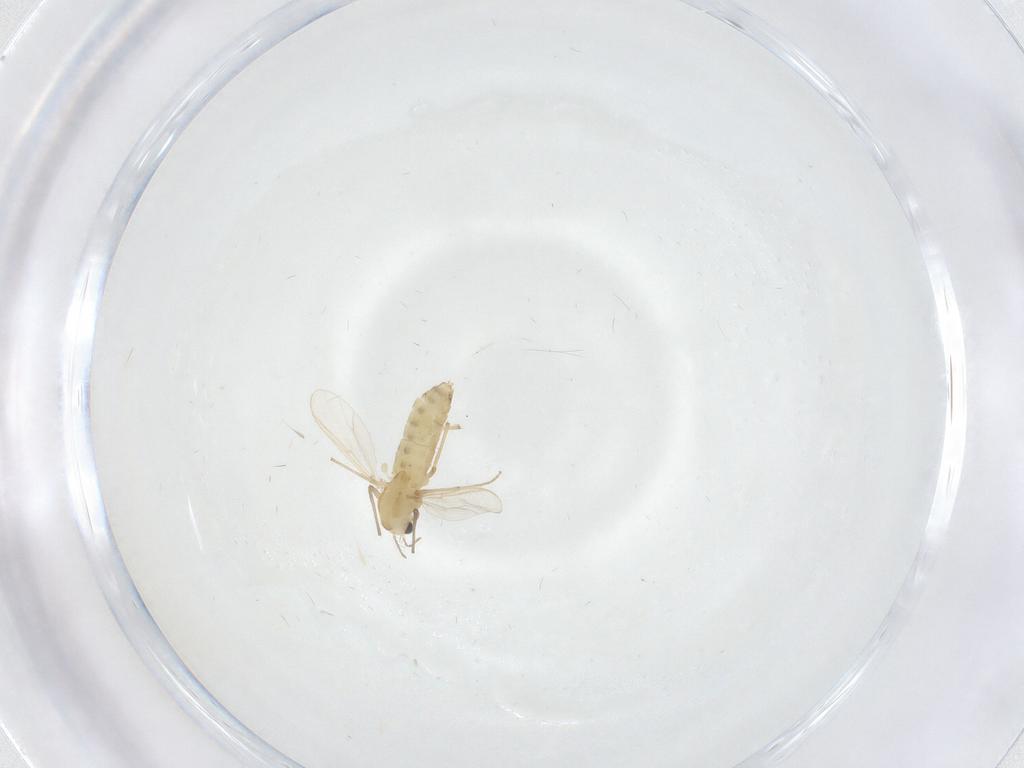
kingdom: Animalia
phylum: Arthropoda
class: Insecta
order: Diptera
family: Chironomidae
